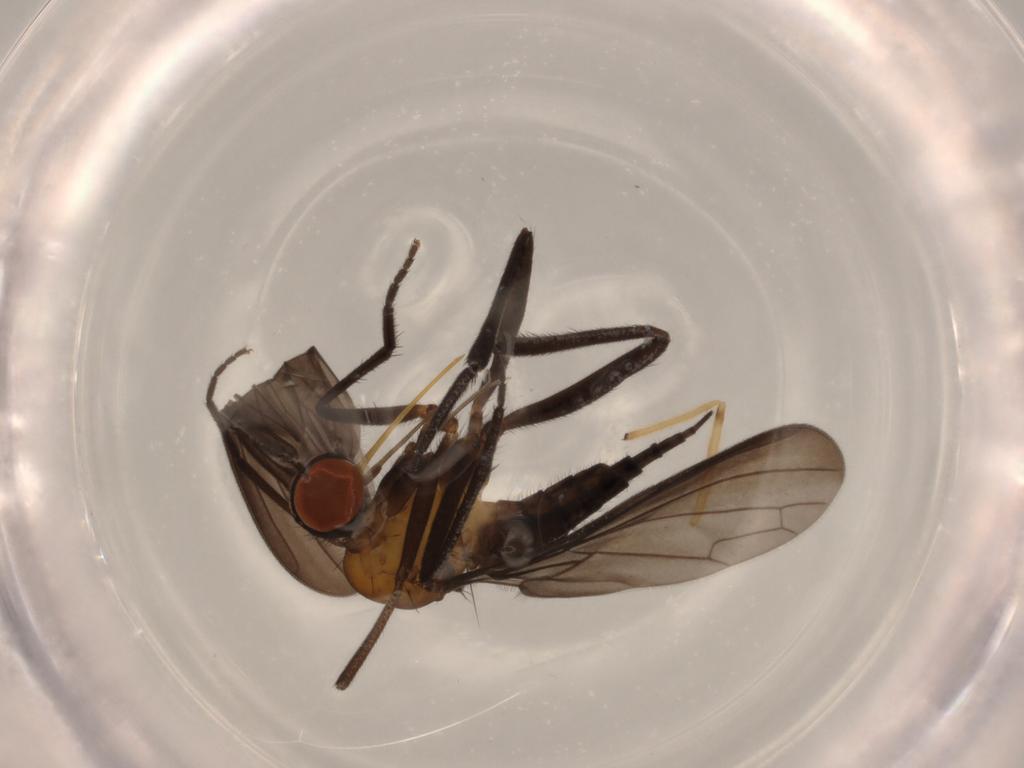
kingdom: Animalia
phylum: Arthropoda
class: Insecta
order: Diptera
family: Empididae
